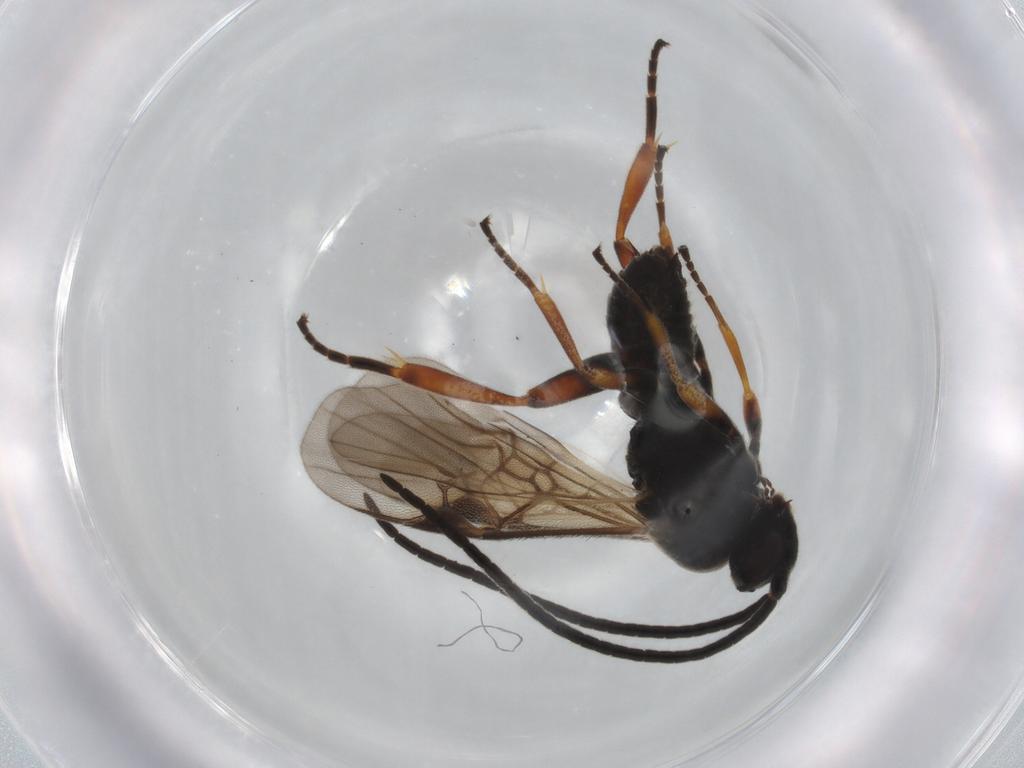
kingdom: Animalia
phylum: Arthropoda
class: Insecta
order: Hymenoptera
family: Braconidae
